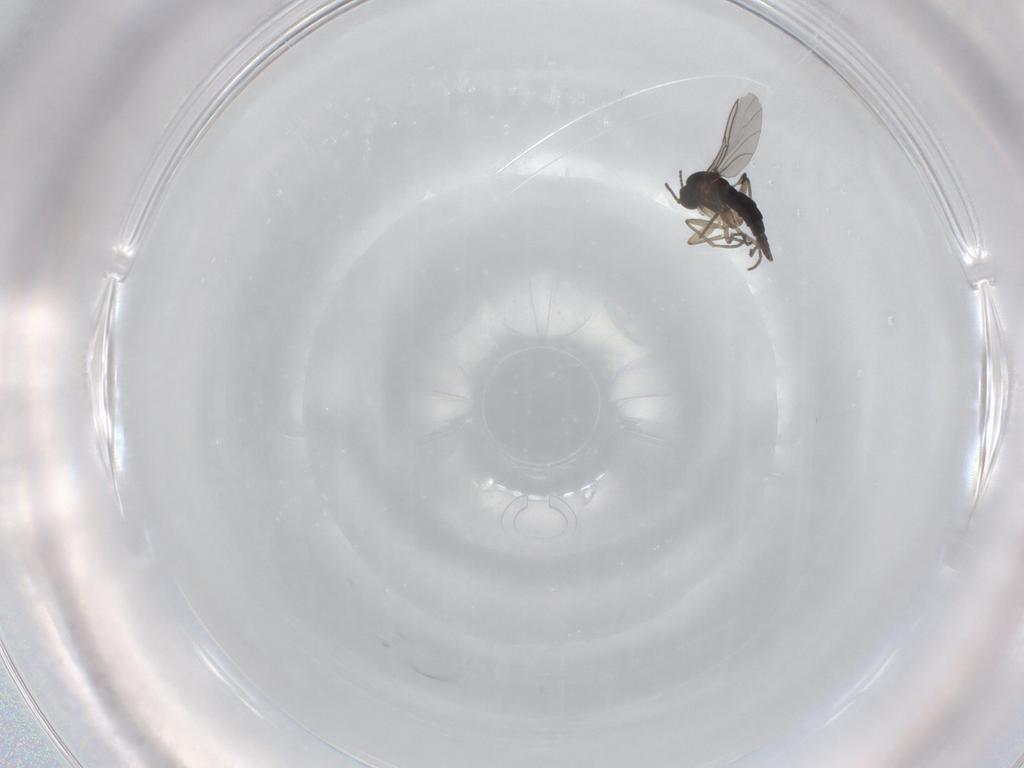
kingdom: Animalia
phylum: Arthropoda
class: Insecta
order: Diptera
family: Sciaridae
